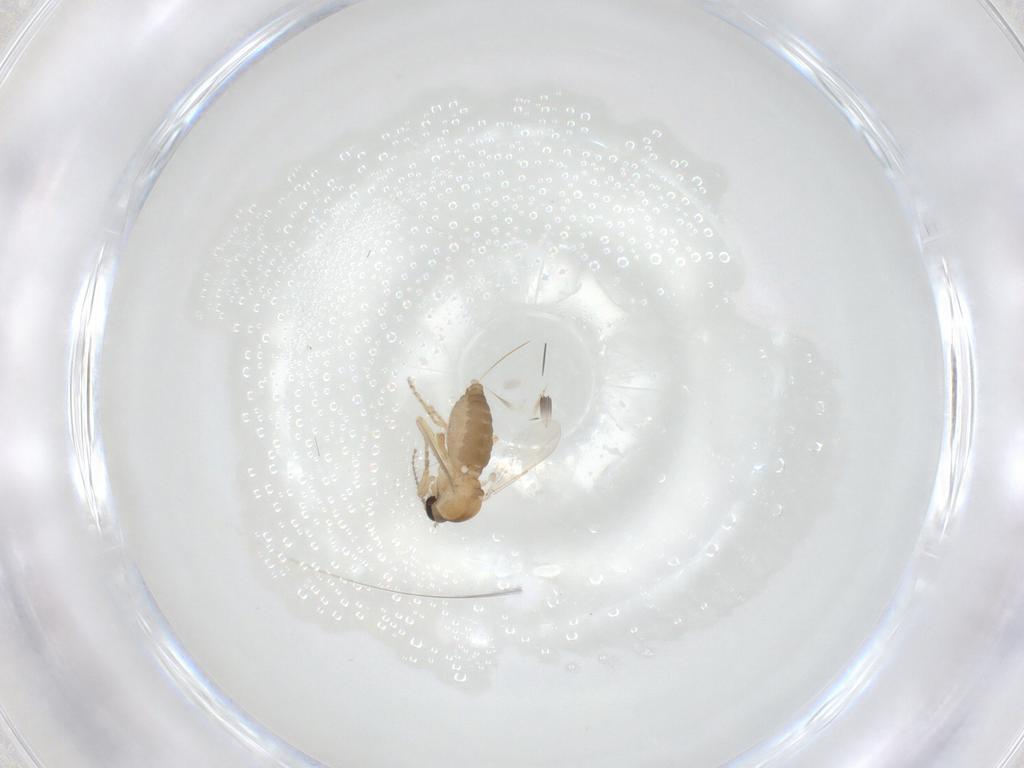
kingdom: Animalia
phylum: Arthropoda
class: Insecta
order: Diptera
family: Ceratopogonidae
